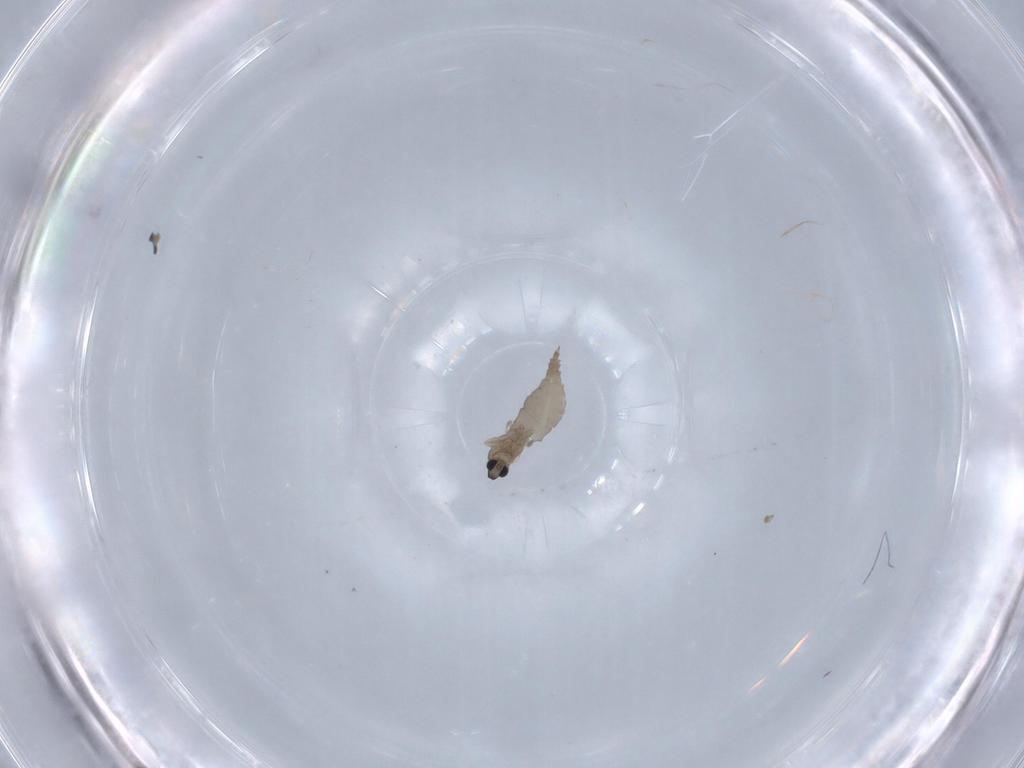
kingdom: Animalia
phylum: Arthropoda
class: Insecta
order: Diptera
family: Cecidomyiidae
